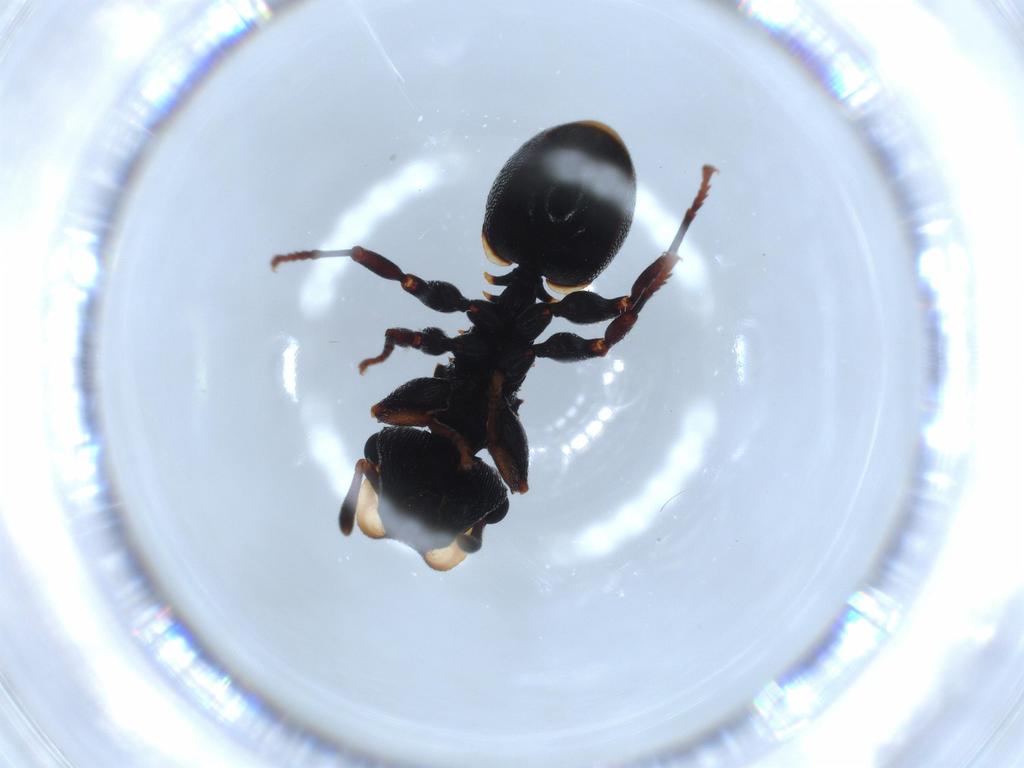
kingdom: Animalia
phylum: Arthropoda
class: Insecta
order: Hymenoptera
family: Formicidae
